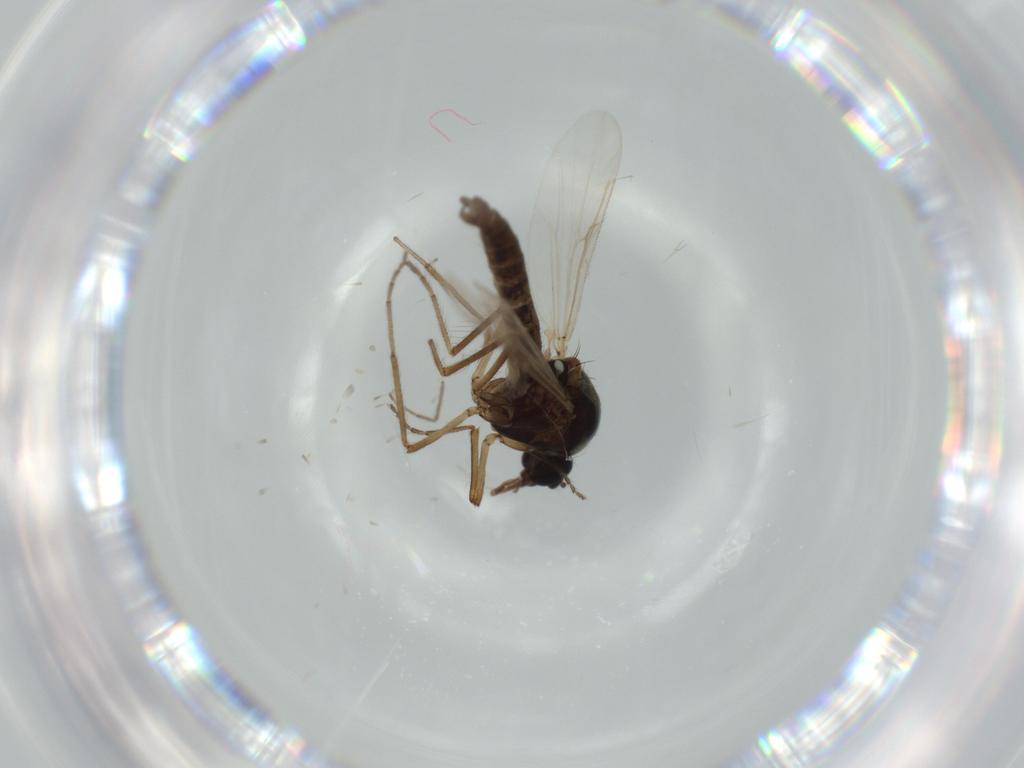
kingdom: Animalia
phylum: Arthropoda
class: Insecta
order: Diptera
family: Ceratopogonidae
